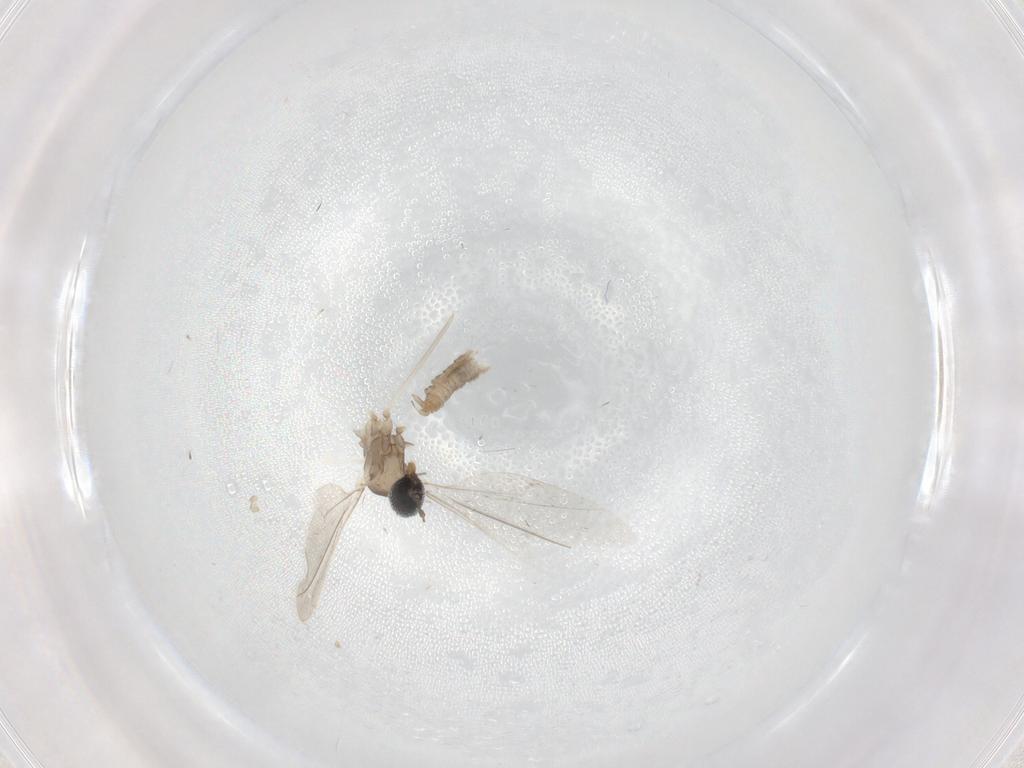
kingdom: Animalia
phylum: Arthropoda
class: Insecta
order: Diptera
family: Cecidomyiidae
